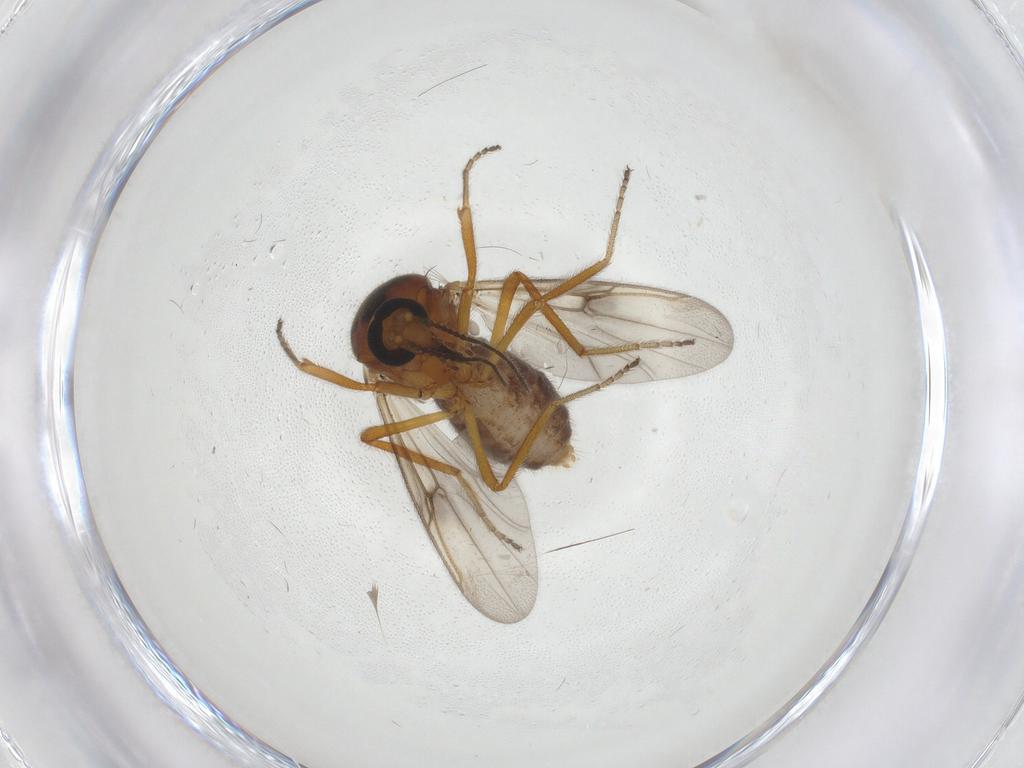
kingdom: Animalia
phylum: Arthropoda
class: Insecta
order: Diptera
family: Ceratopogonidae
